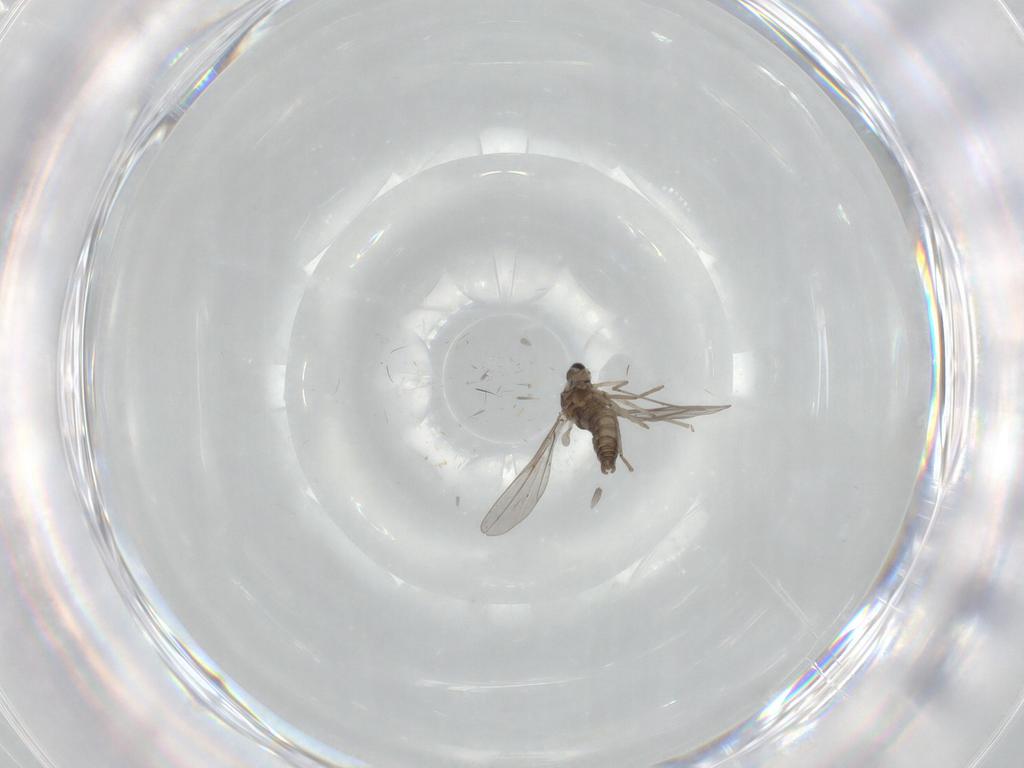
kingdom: Animalia
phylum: Arthropoda
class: Insecta
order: Diptera
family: Cecidomyiidae
